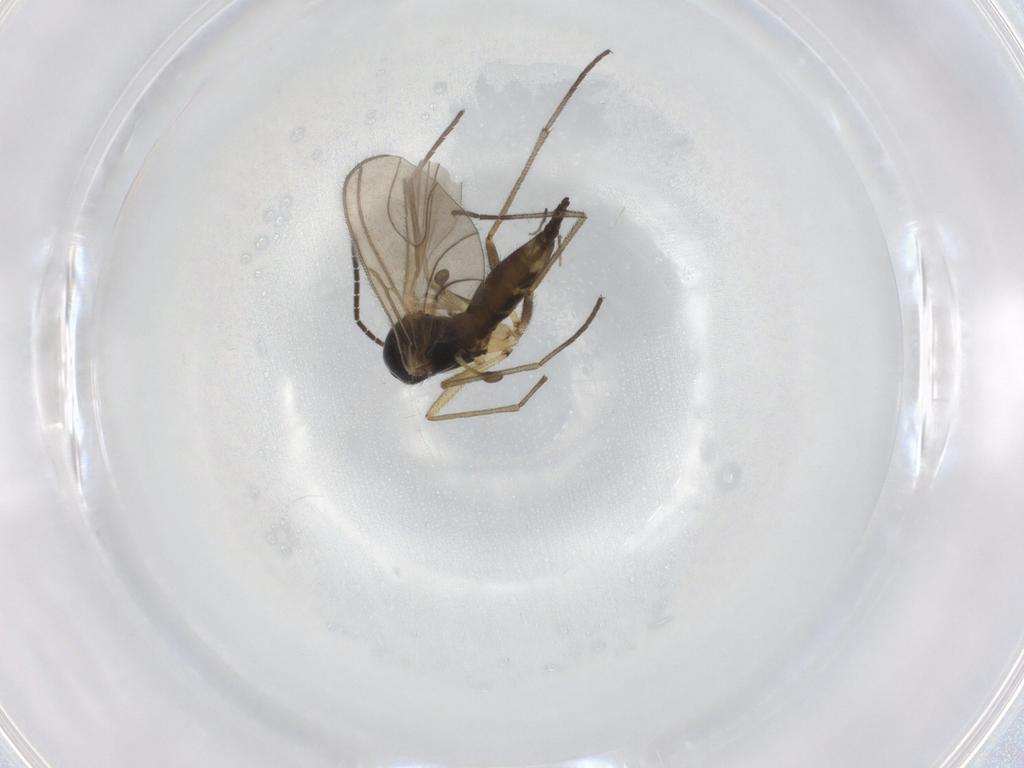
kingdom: Animalia
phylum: Arthropoda
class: Insecta
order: Diptera
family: Sciaridae
